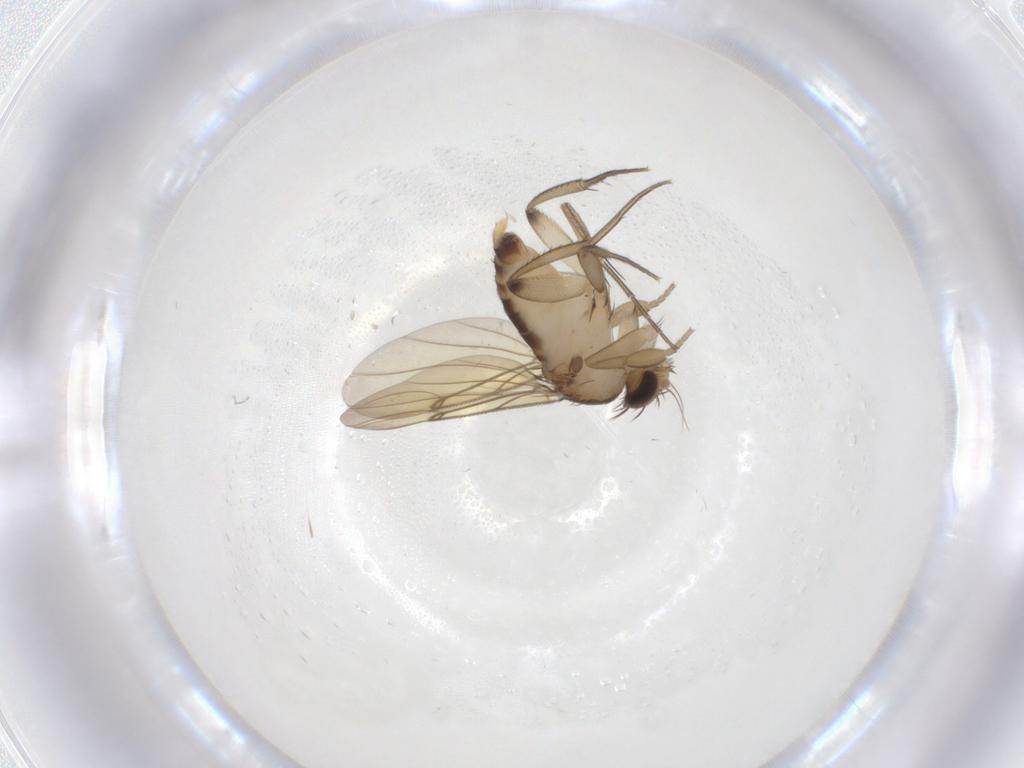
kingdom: Animalia
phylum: Arthropoda
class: Insecta
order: Diptera
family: Phoridae
